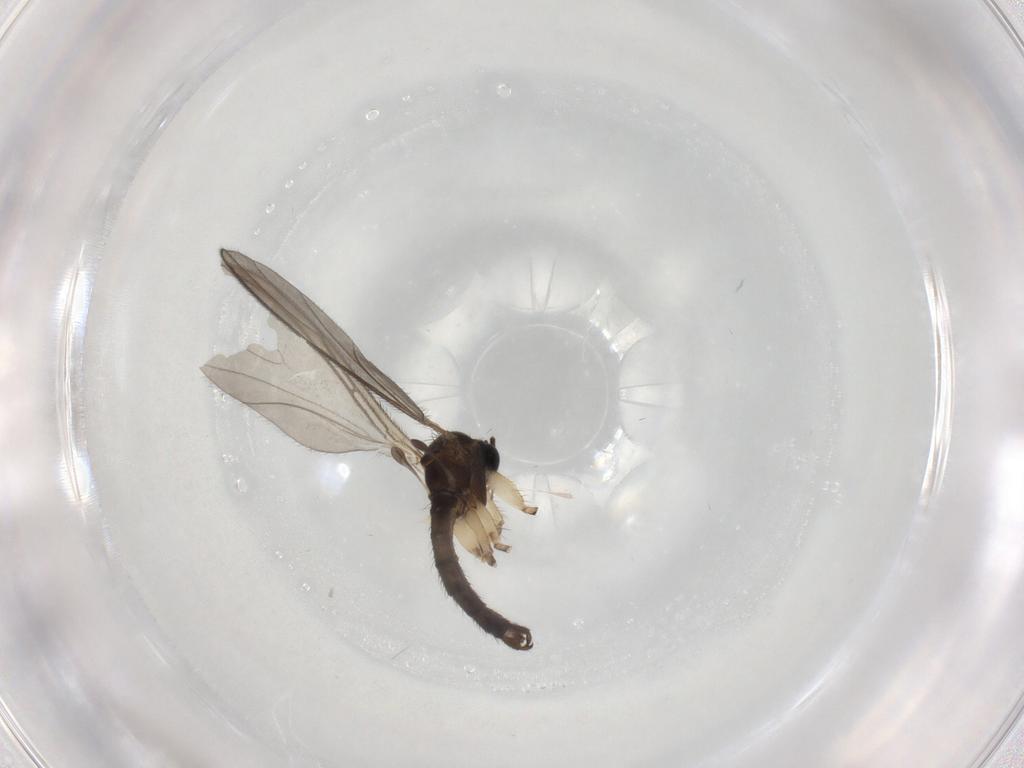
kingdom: Animalia
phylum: Arthropoda
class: Insecta
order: Diptera
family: Sciaridae
